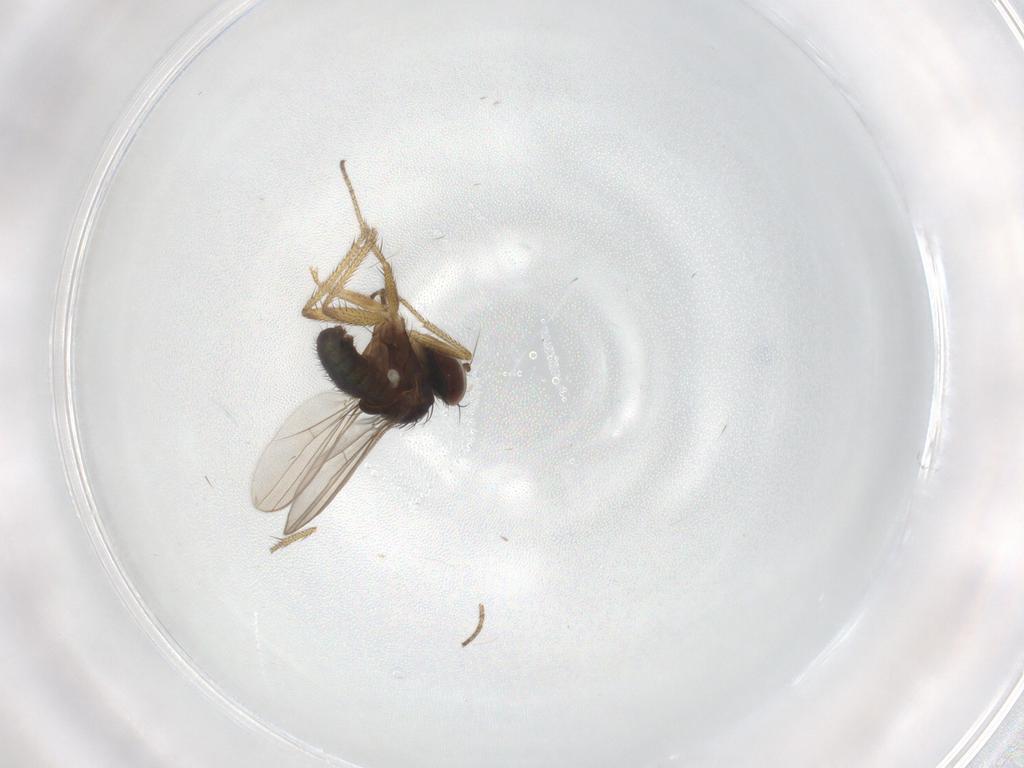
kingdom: Animalia
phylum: Arthropoda
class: Insecta
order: Diptera
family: Dolichopodidae
